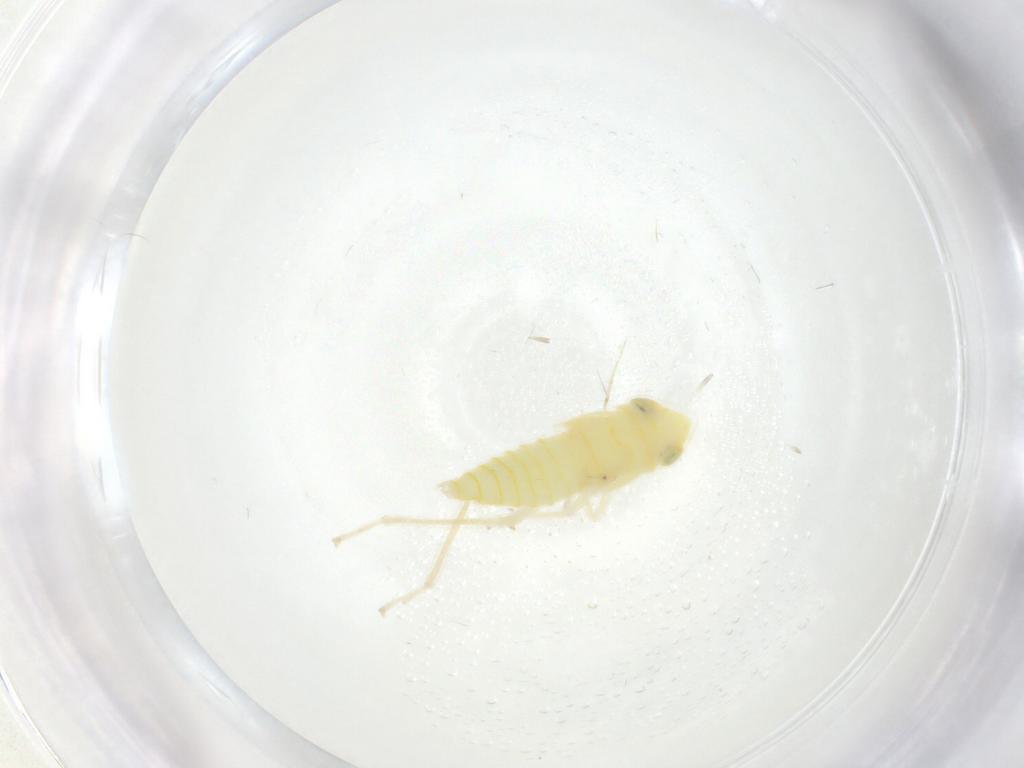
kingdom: Animalia
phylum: Arthropoda
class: Insecta
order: Hemiptera
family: Cicadellidae
